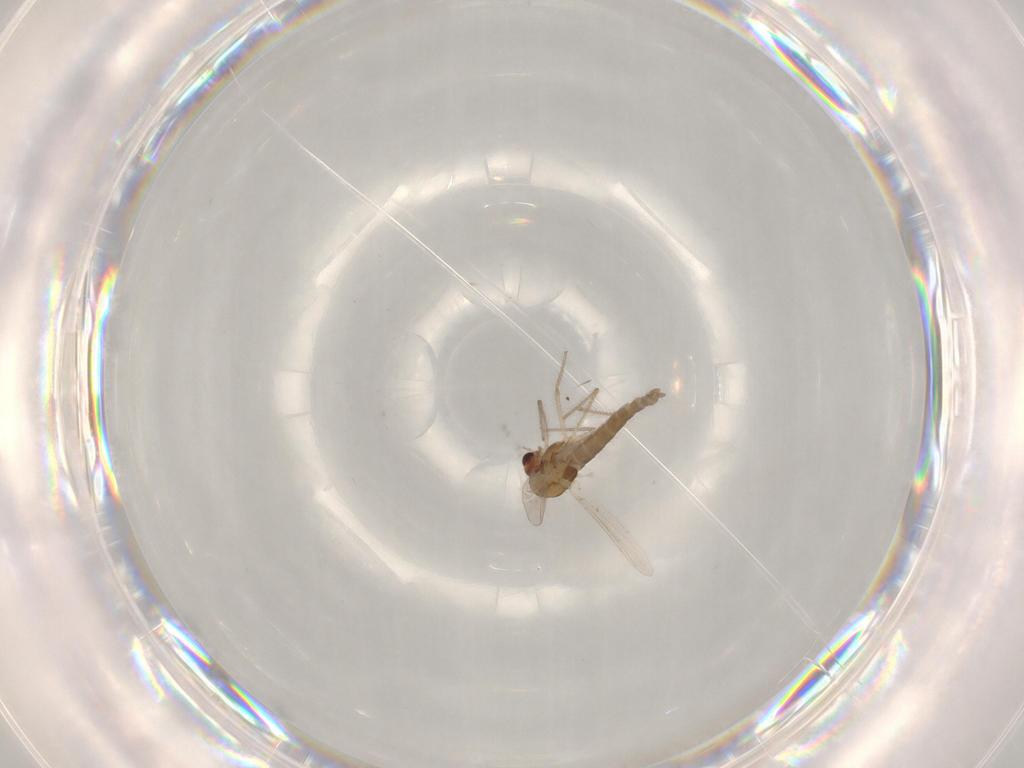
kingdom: Animalia
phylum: Arthropoda
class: Insecta
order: Diptera
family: Chironomidae
